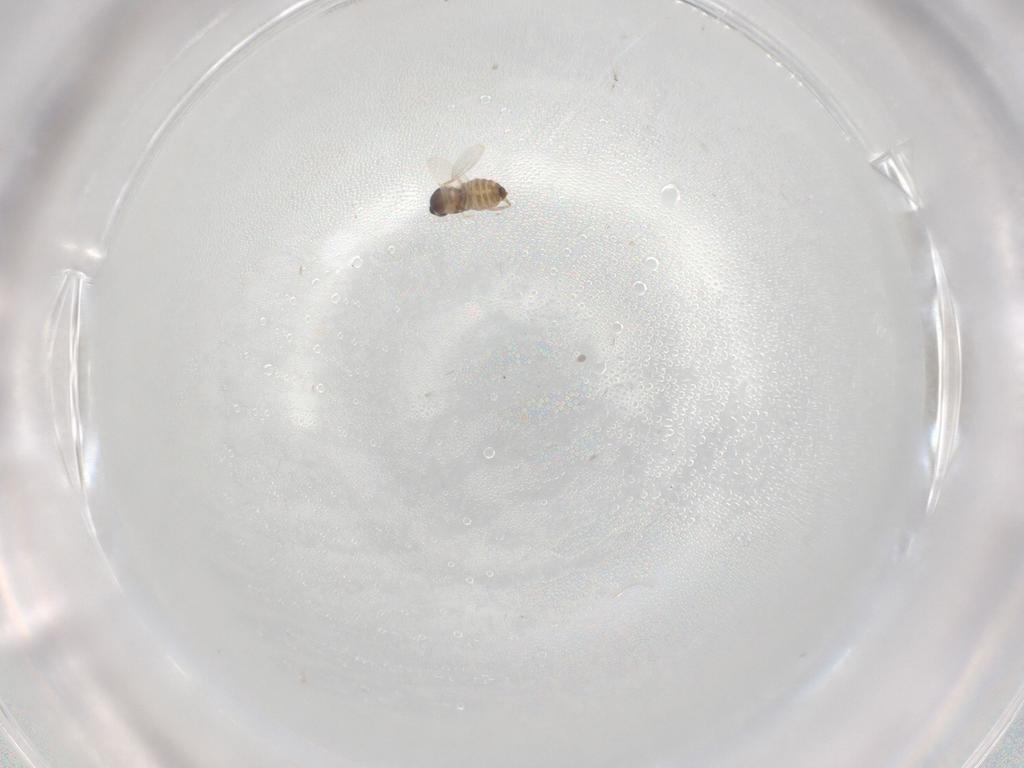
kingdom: Animalia
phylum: Arthropoda
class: Insecta
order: Diptera
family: Cecidomyiidae
